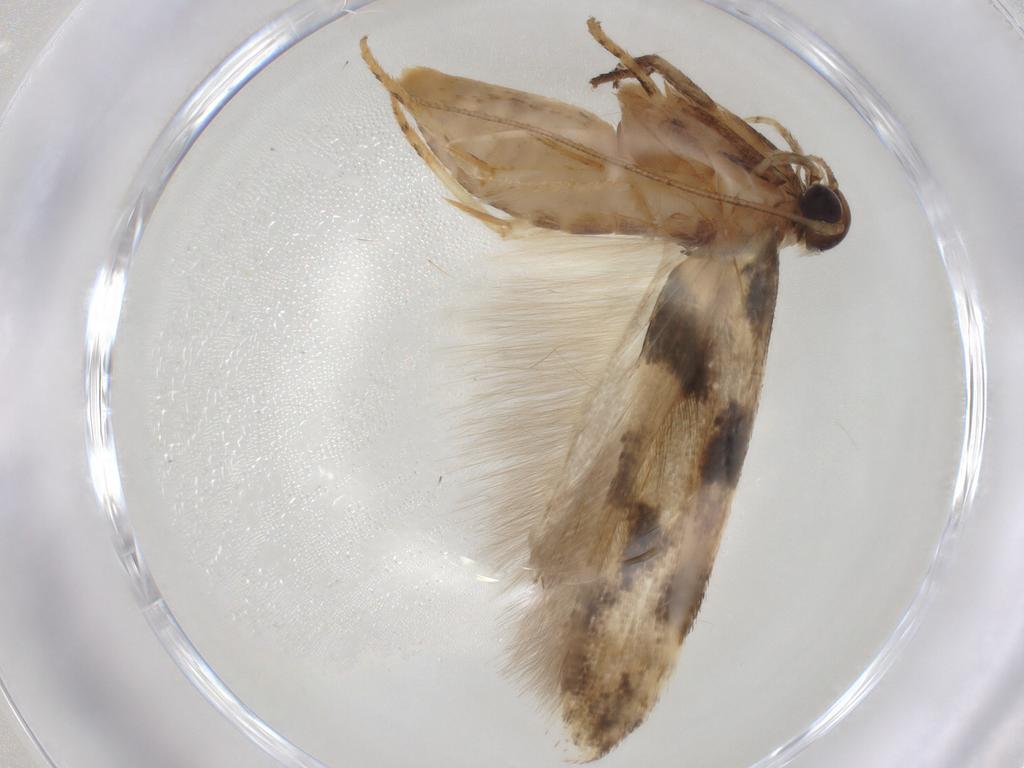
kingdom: Animalia
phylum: Arthropoda
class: Insecta
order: Lepidoptera
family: Gelechiidae
